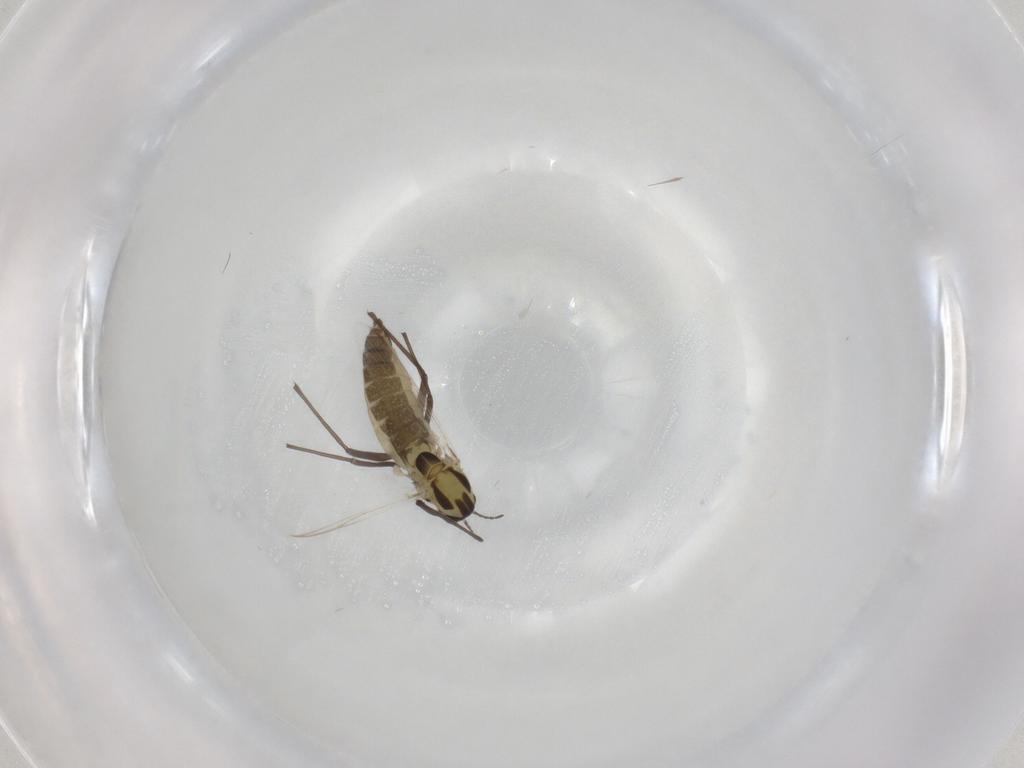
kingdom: Animalia
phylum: Arthropoda
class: Insecta
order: Diptera
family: Chironomidae
